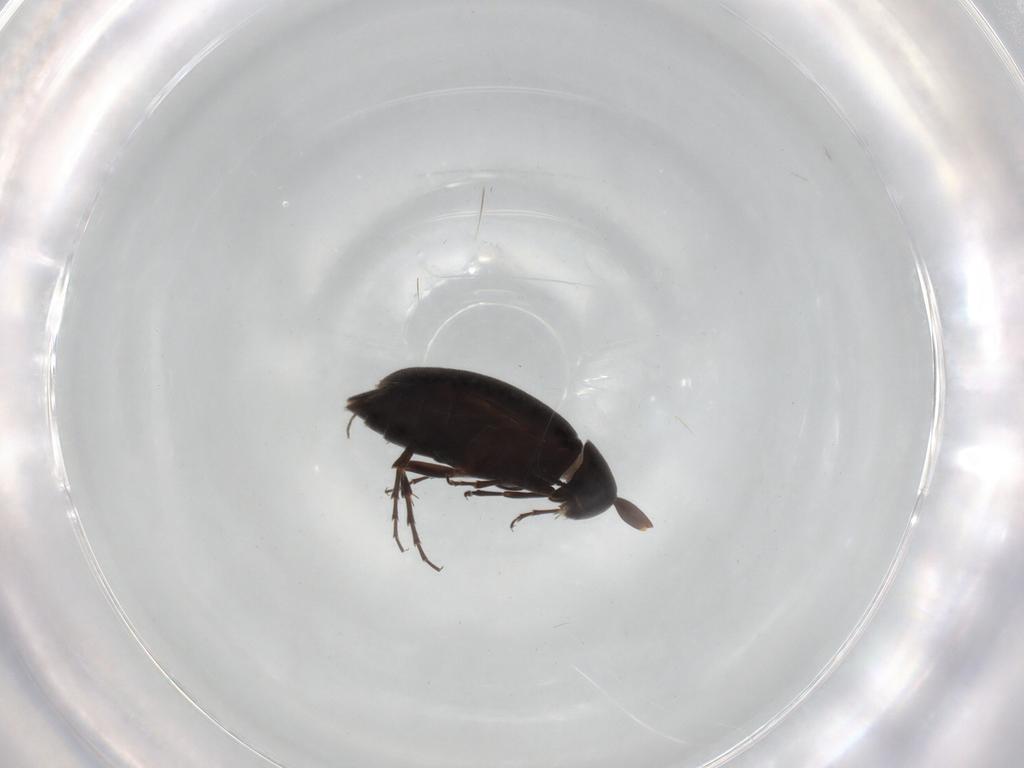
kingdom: Animalia
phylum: Arthropoda
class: Insecta
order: Coleoptera
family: Scraptiidae
